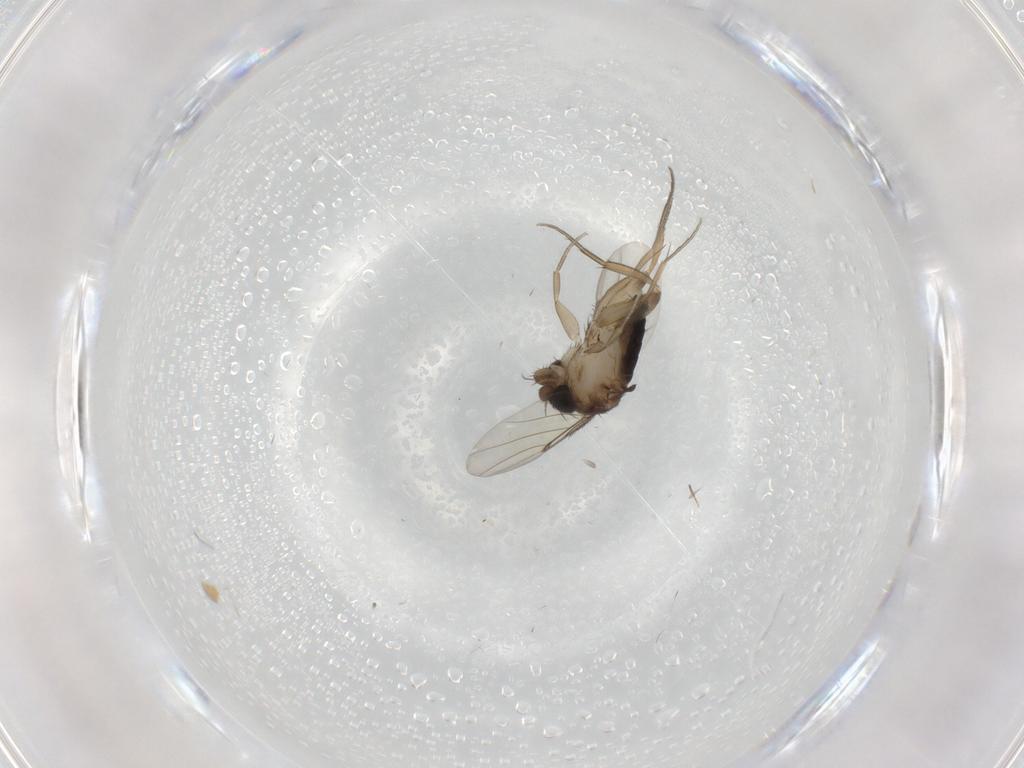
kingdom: Animalia
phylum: Arthropoda
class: Insecta
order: Diptera
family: Phoridae
